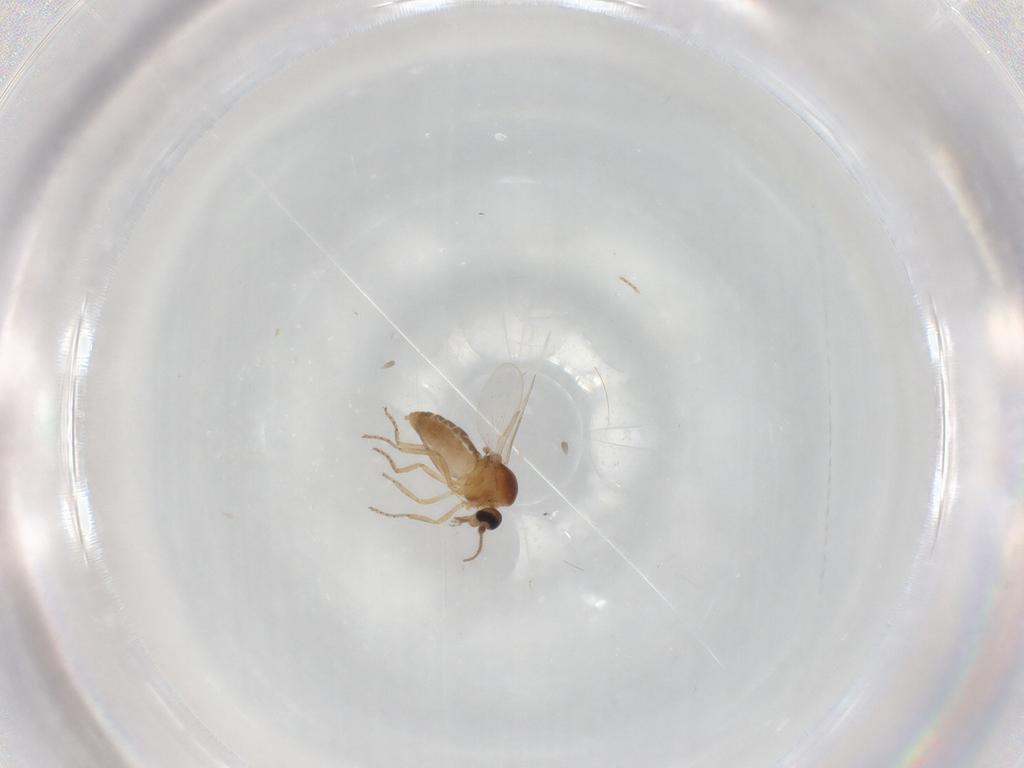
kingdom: Animalia
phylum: Arthropoda
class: Insecta
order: Diptera
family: Ceratopogonidae
